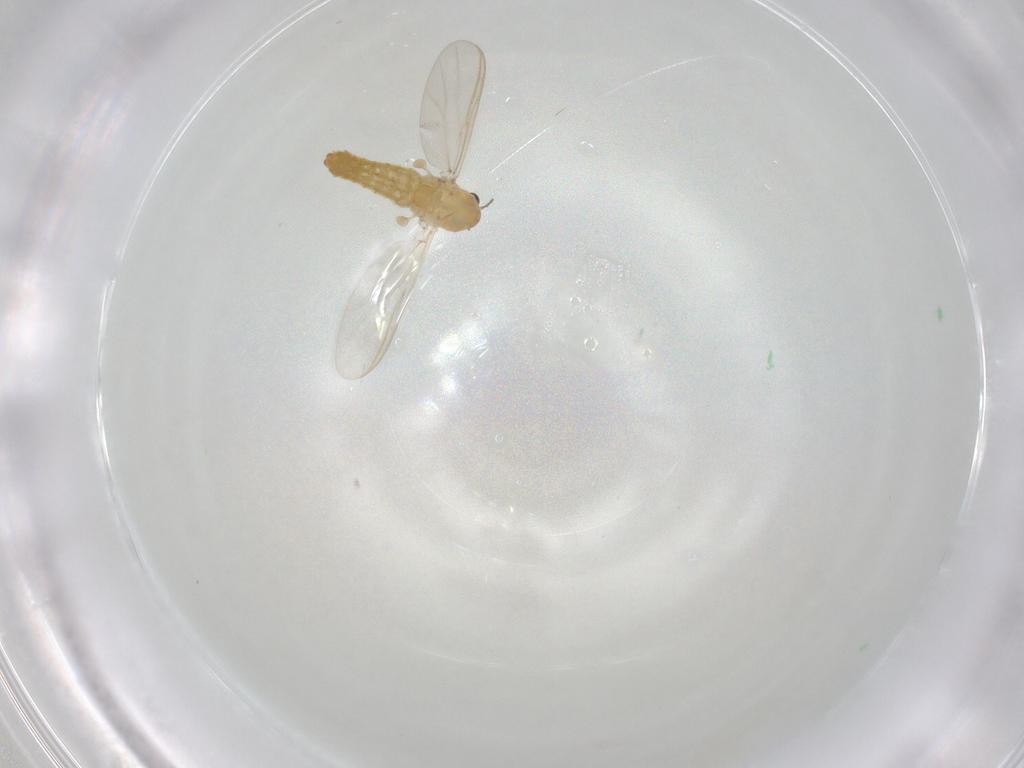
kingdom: Animalia
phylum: Arthropoda
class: Insecta
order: Diptera
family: Chironomidae
